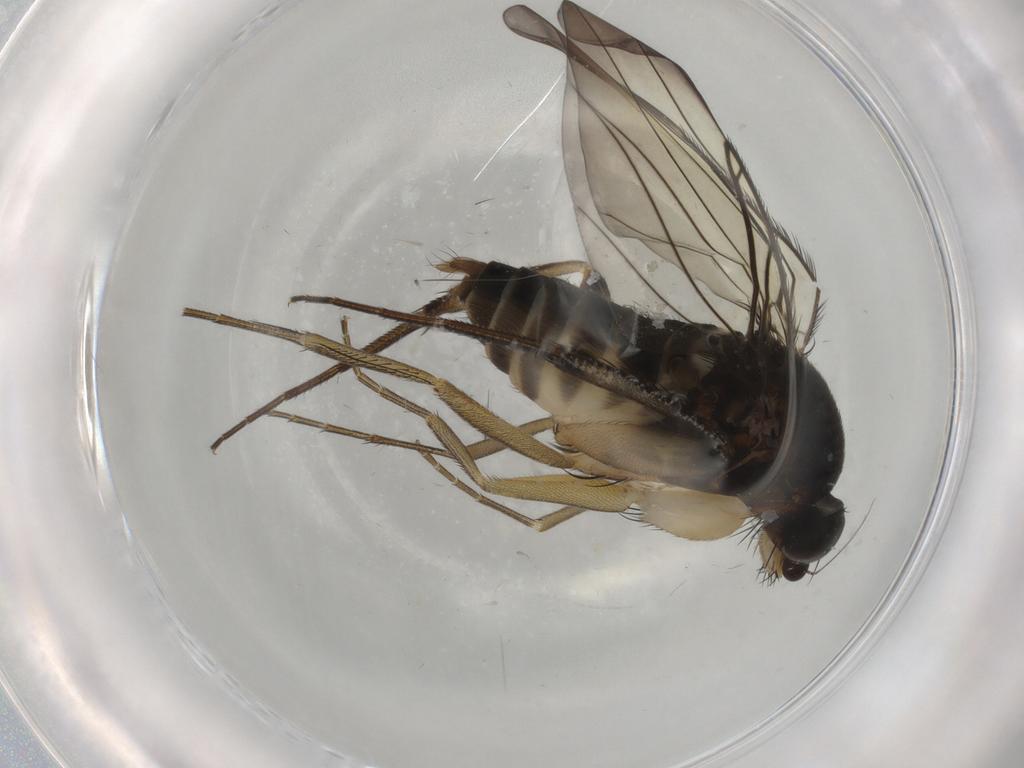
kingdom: Animalia
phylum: Arthropoda
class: Insecta
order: Diptera
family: Phoridae
